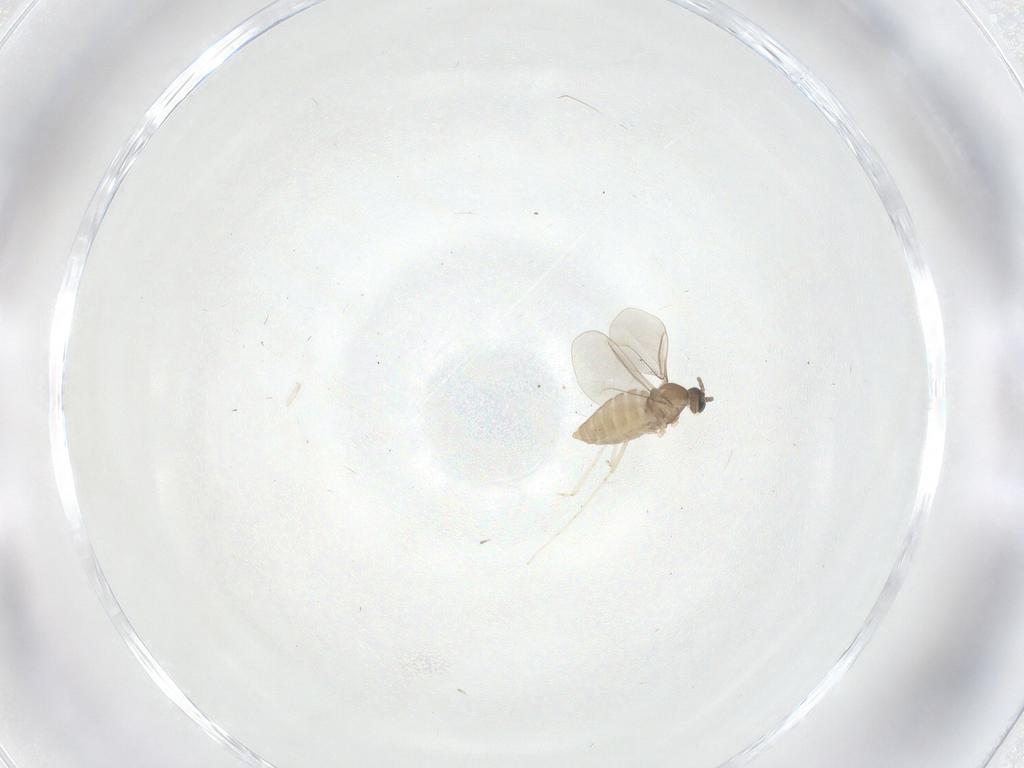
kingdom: Animalia
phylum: Arthropoda
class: Insecta
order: Diptera
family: Cecidomyiidae
